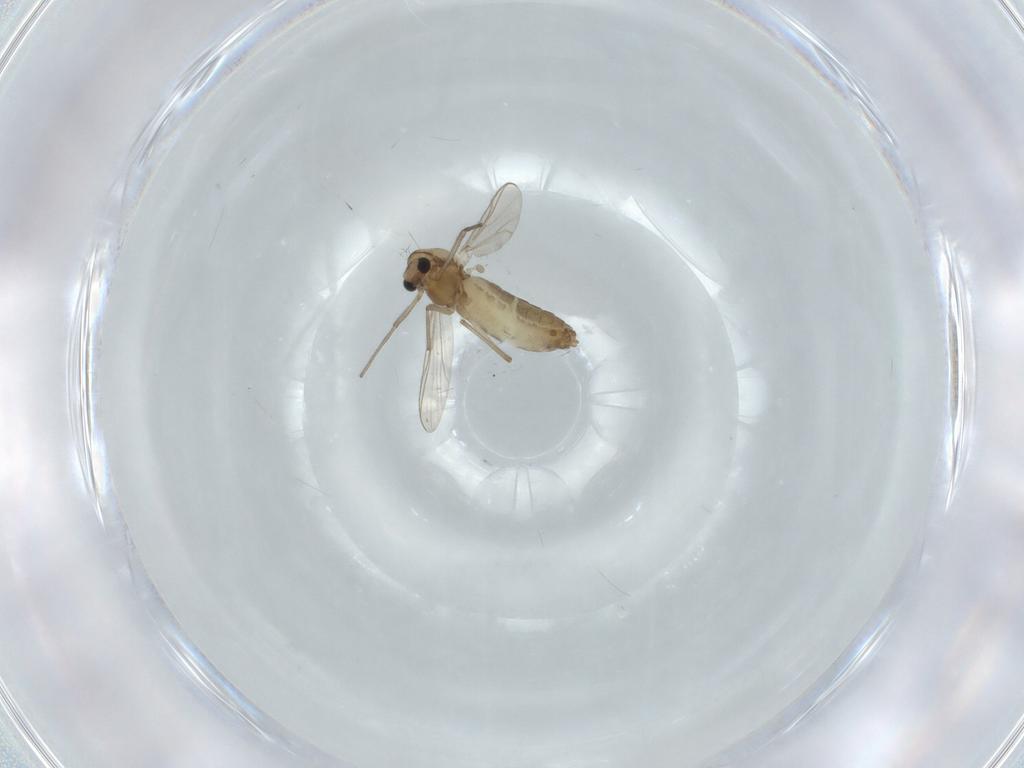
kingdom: Animalia
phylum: Arthropoda
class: Insecta
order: Diptera
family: Chironomidae
